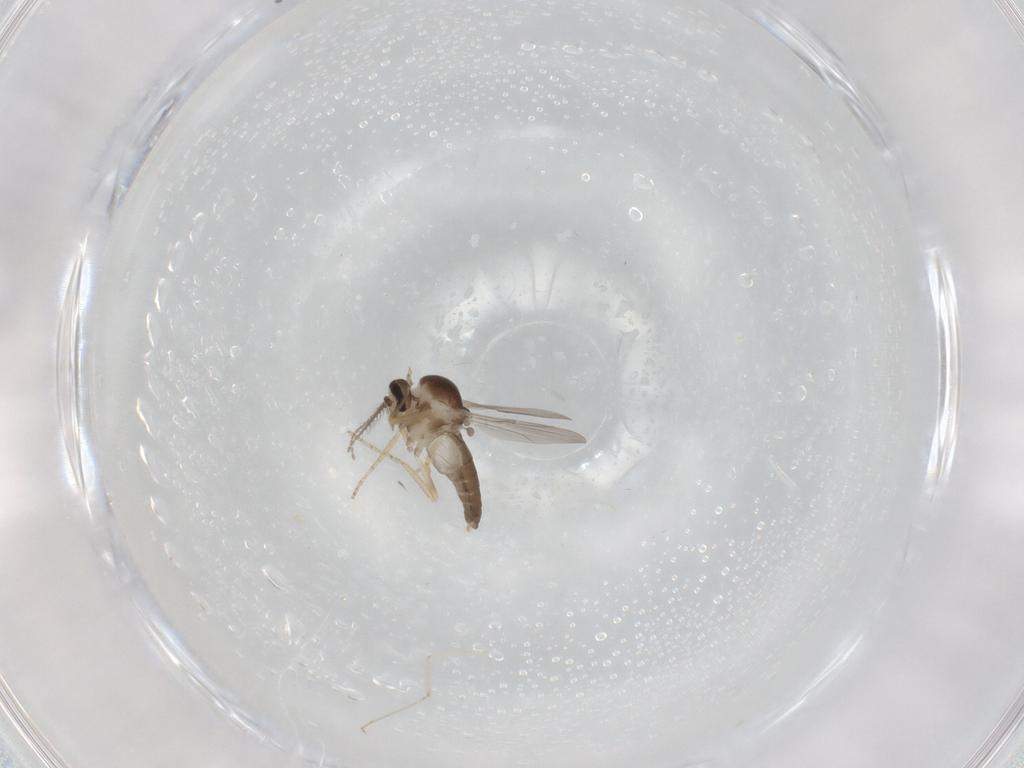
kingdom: Animalia
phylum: Arthropoda
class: Insecta
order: Diptera
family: Ceratopogonidae
